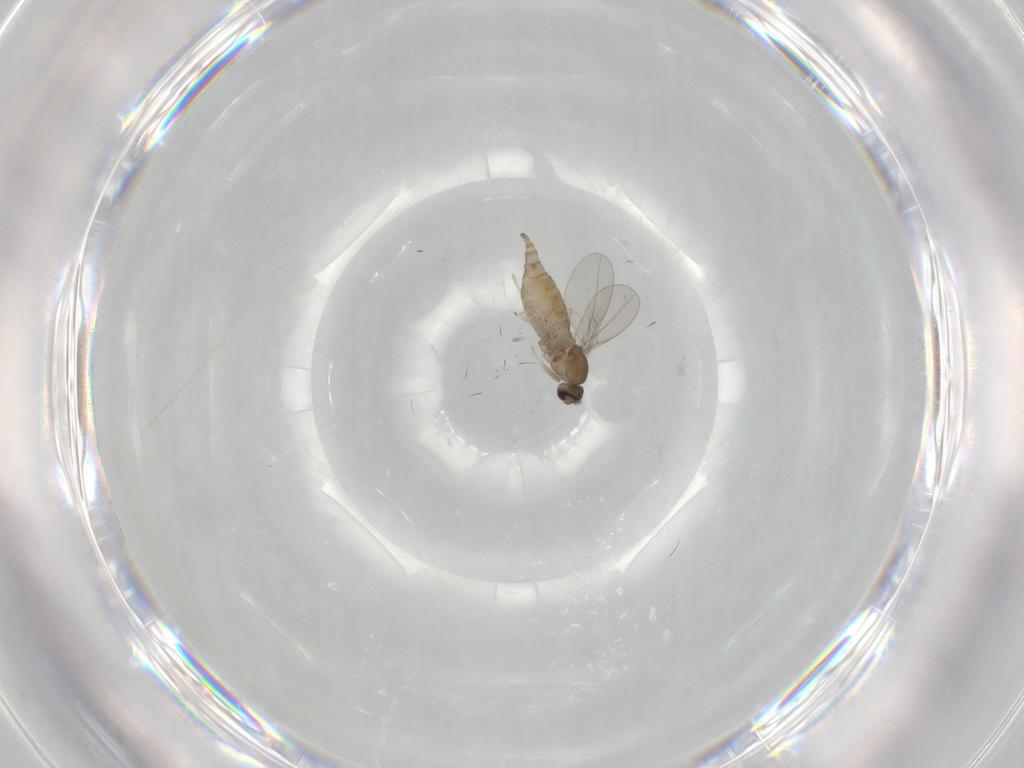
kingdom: Animalia
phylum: Arthropoda
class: Insecta
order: Diptera
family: Cecidomyiidae
